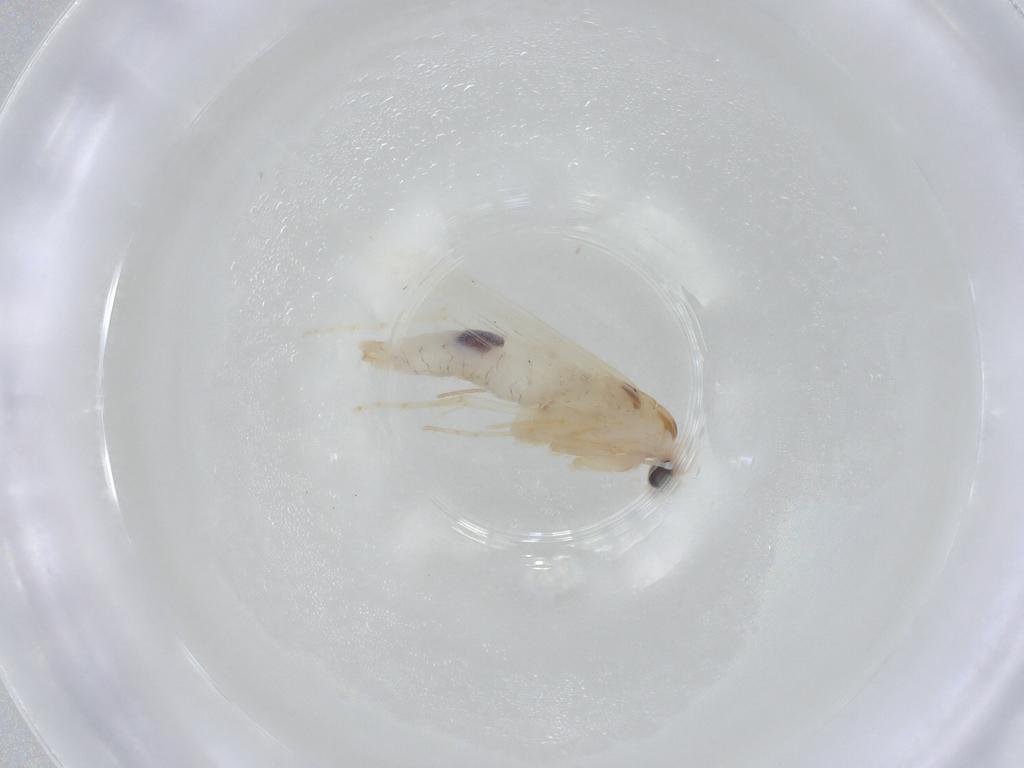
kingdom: Animalia
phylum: Arthropoda
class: Insecta
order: Lepidoptera
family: Gelechiidae
